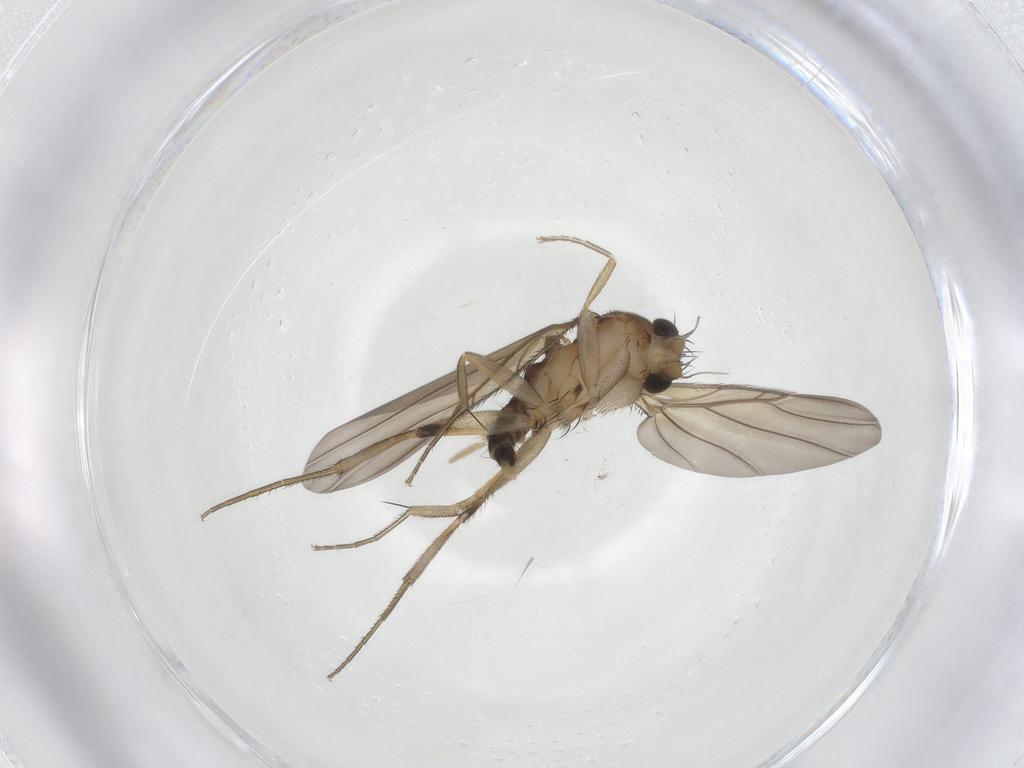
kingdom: Animalia
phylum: Arthropoda
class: Insecta
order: Diptera
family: Phoridae
